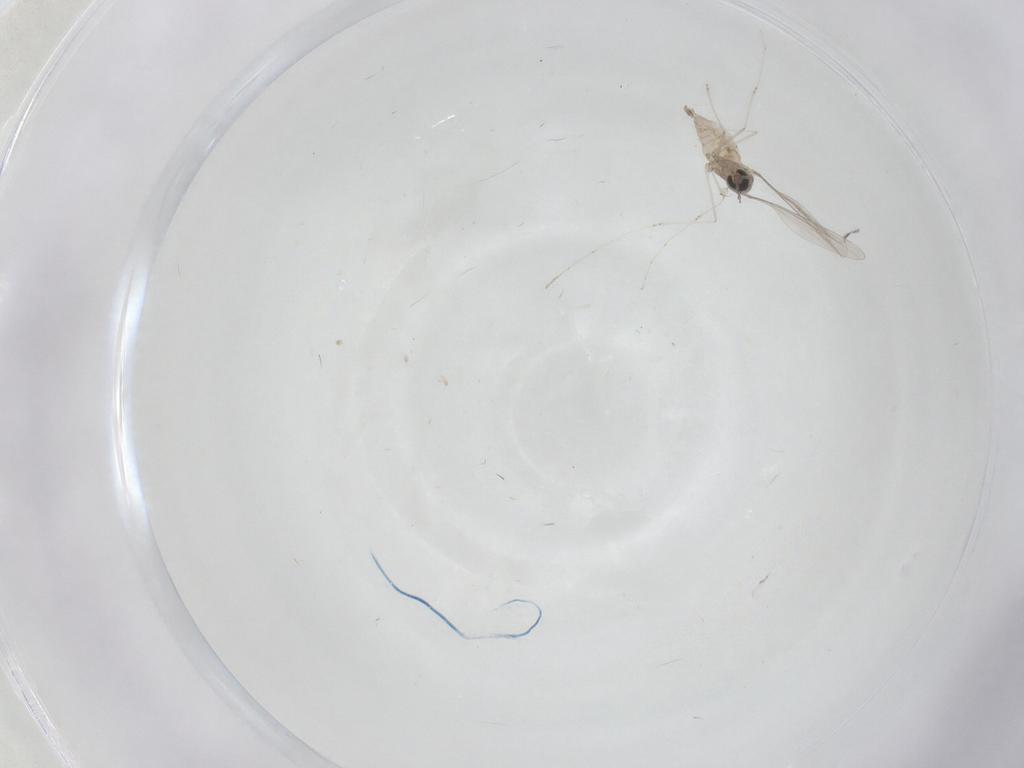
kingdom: Animalia
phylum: Arthropoda
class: Insecta
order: Diptera
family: Cecidomyiidae
